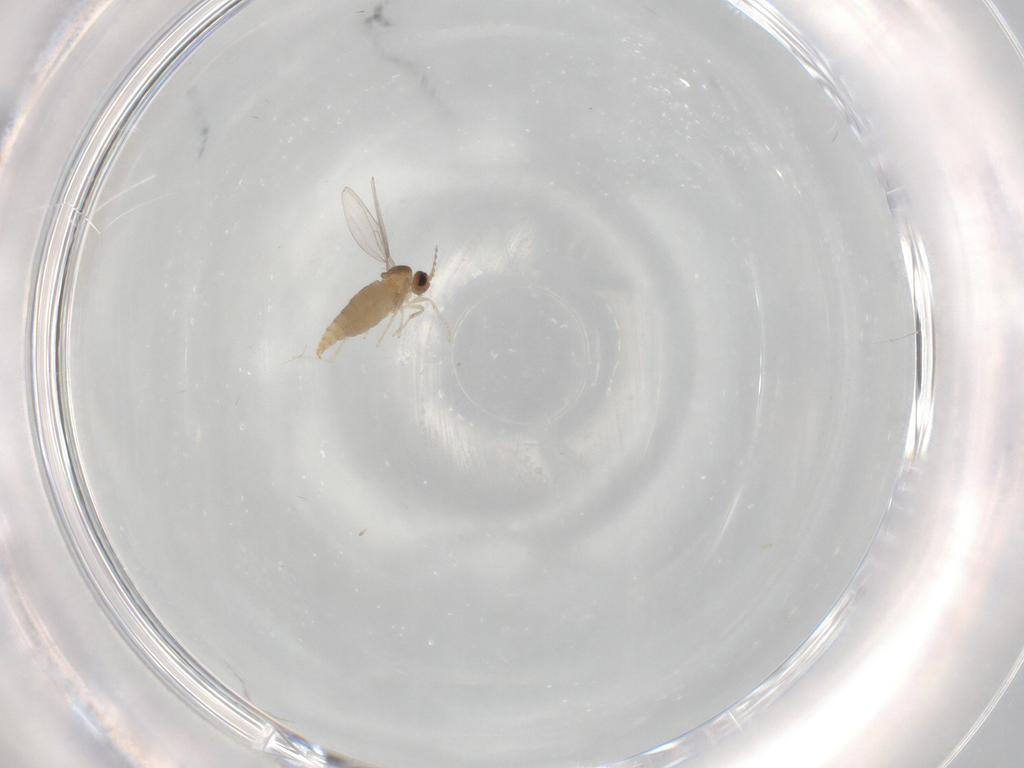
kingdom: Animalia
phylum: Arthropoda
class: Insecta
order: Diptera
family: Cecidomyiidae
